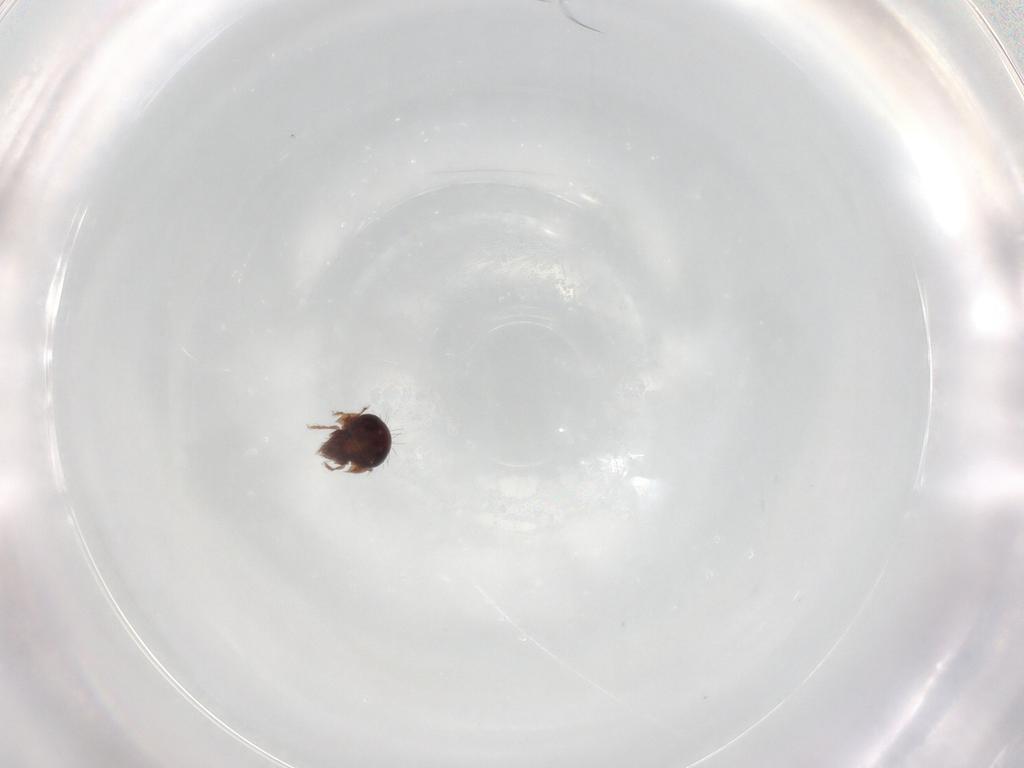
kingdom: Animalia
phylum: Arthropoda
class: Arachnida
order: Sarcoptiformes
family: Humerobatidae
